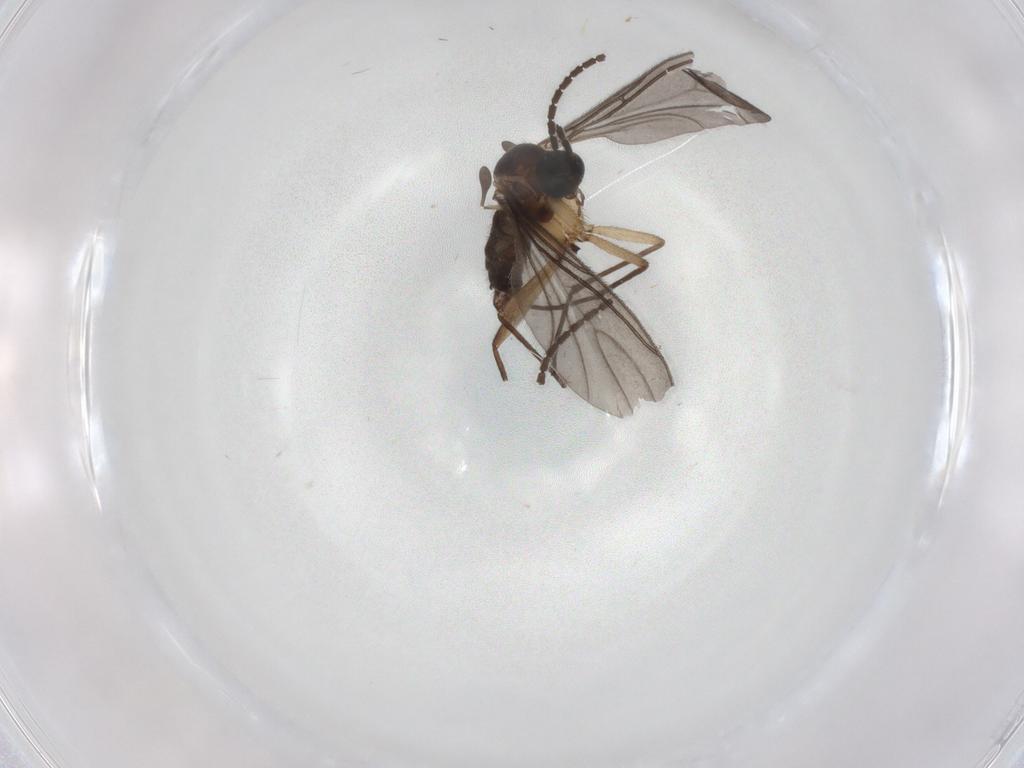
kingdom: Animalia
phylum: Arthropoda
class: Insecta
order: Diptera
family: Sciaridae
